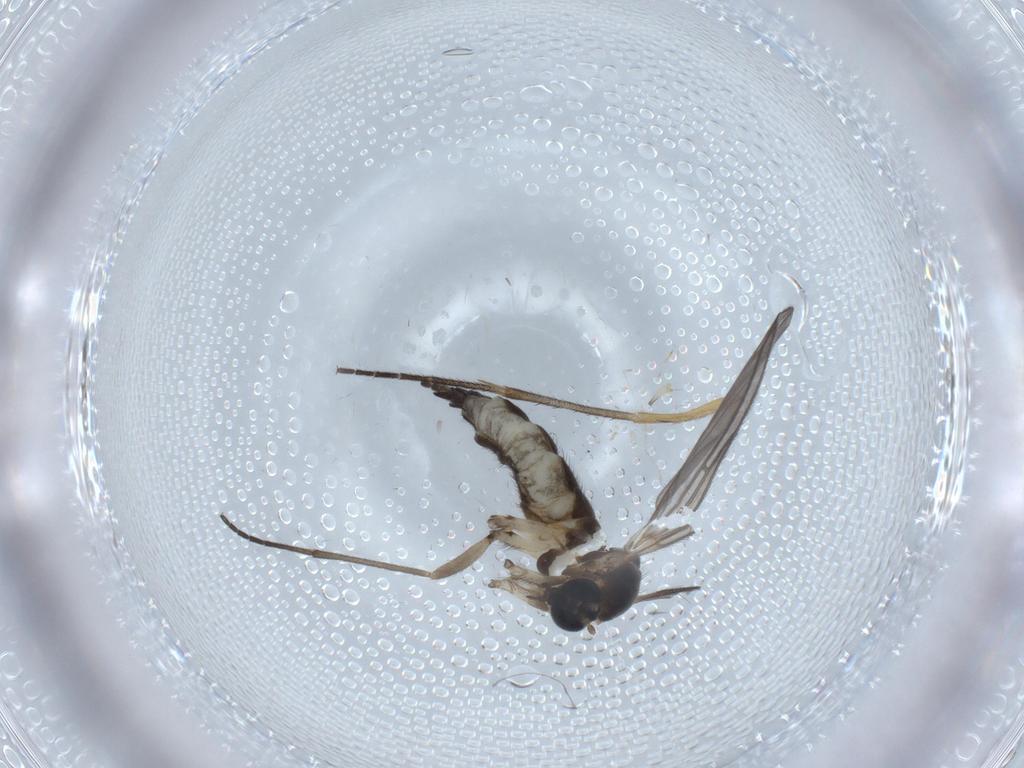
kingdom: Animalia
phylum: Arthropoda
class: Insecta
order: Diptera
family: Sciaridae
